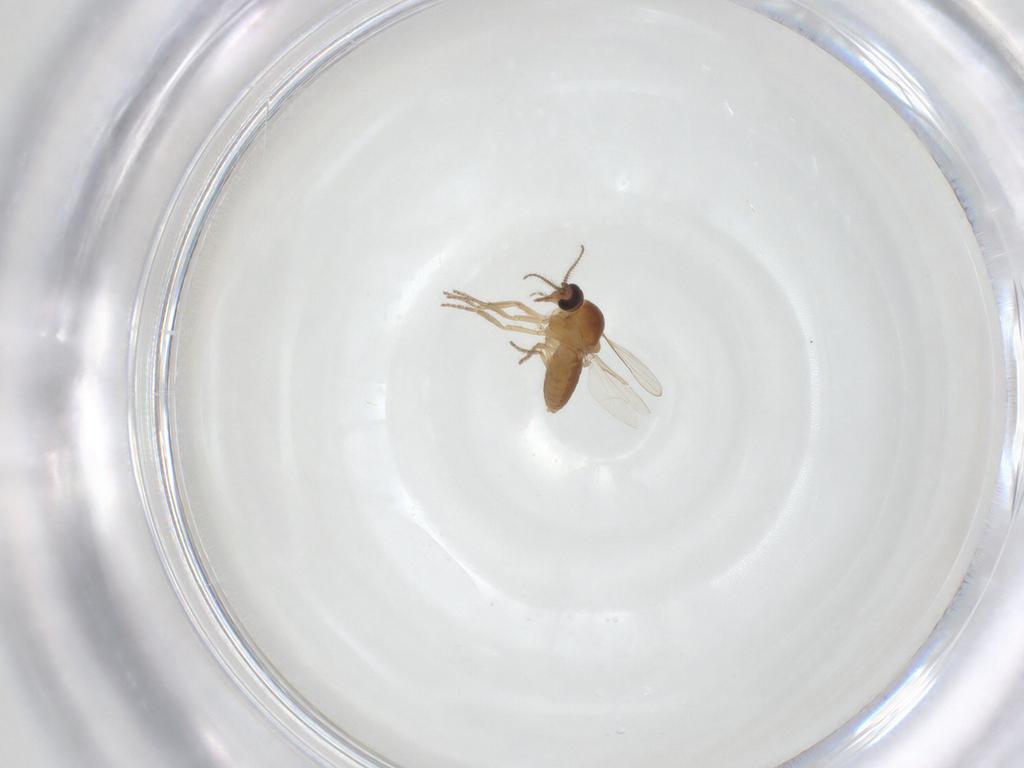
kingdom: Animalia
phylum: Arthropoda
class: Insecta
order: Diptera
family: Ceratopogonidae
